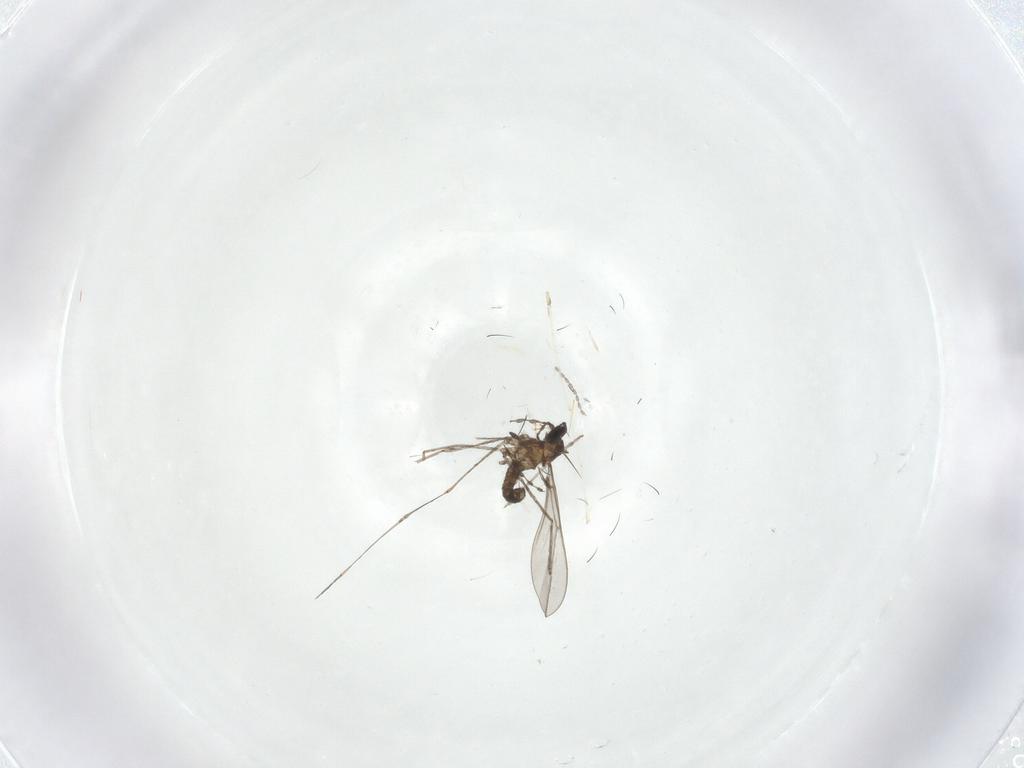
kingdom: Animalia
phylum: Arthropoda
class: Insecta
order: Diptera
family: Cecidomyiidae
